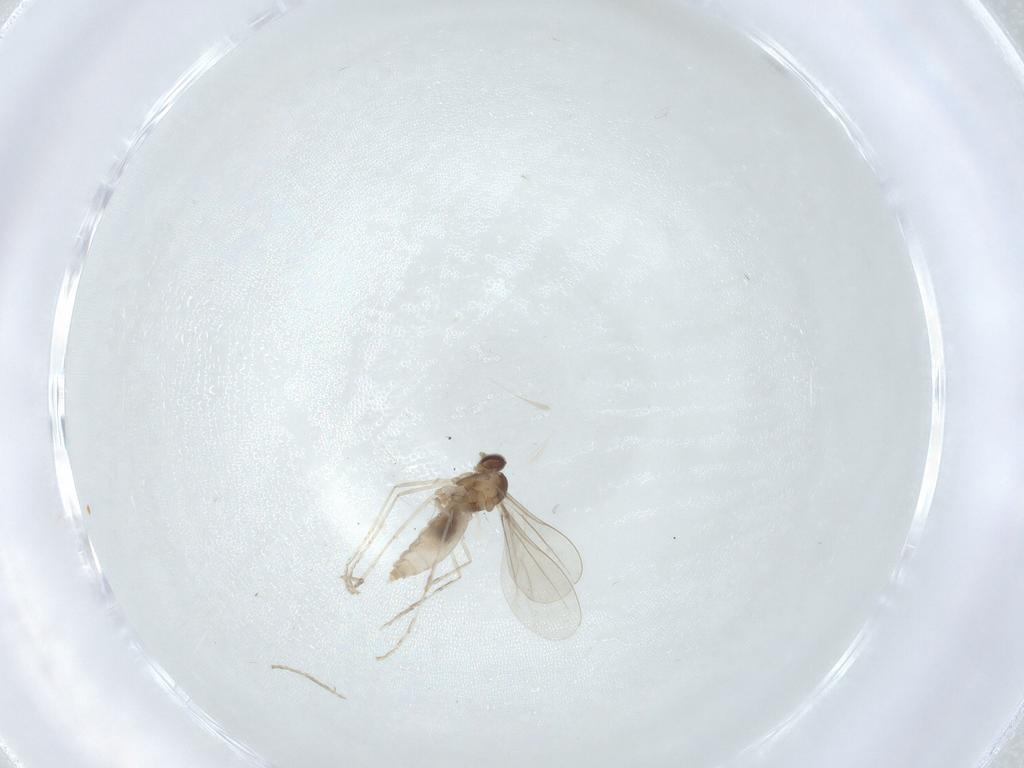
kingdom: Animalia
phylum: Arthropoda
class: Insecta
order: Diptera
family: Cecidomyiidae
